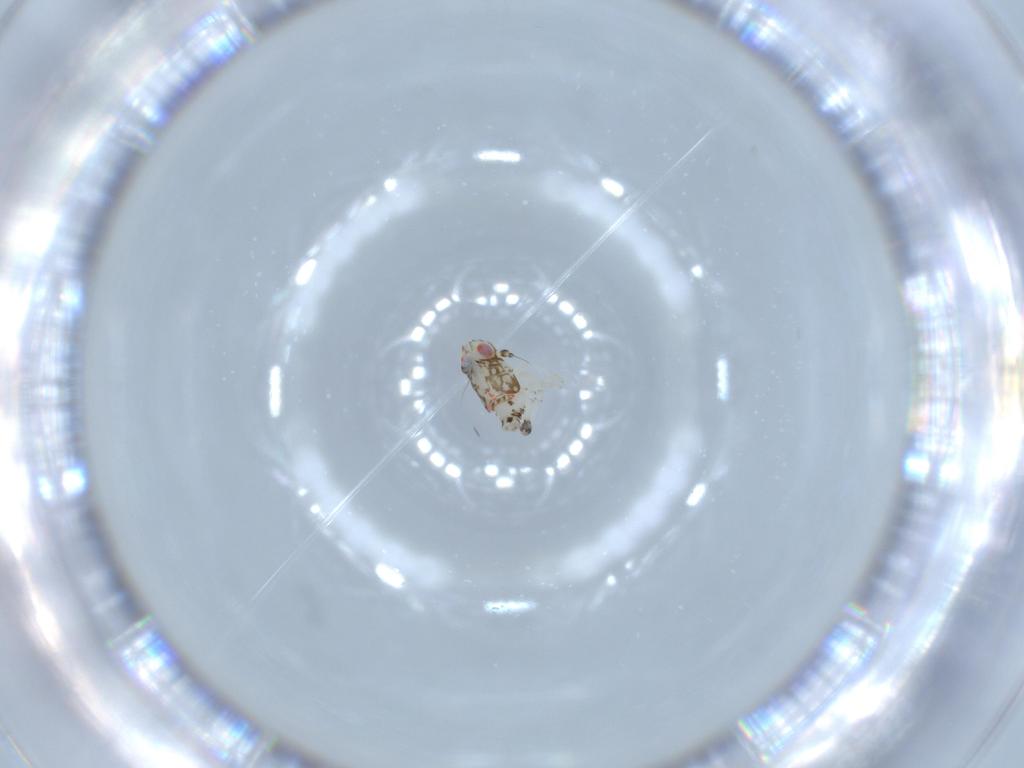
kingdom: Animalia
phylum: Arthropoda
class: Insecta
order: Hemiptera
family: Nogodinidae
